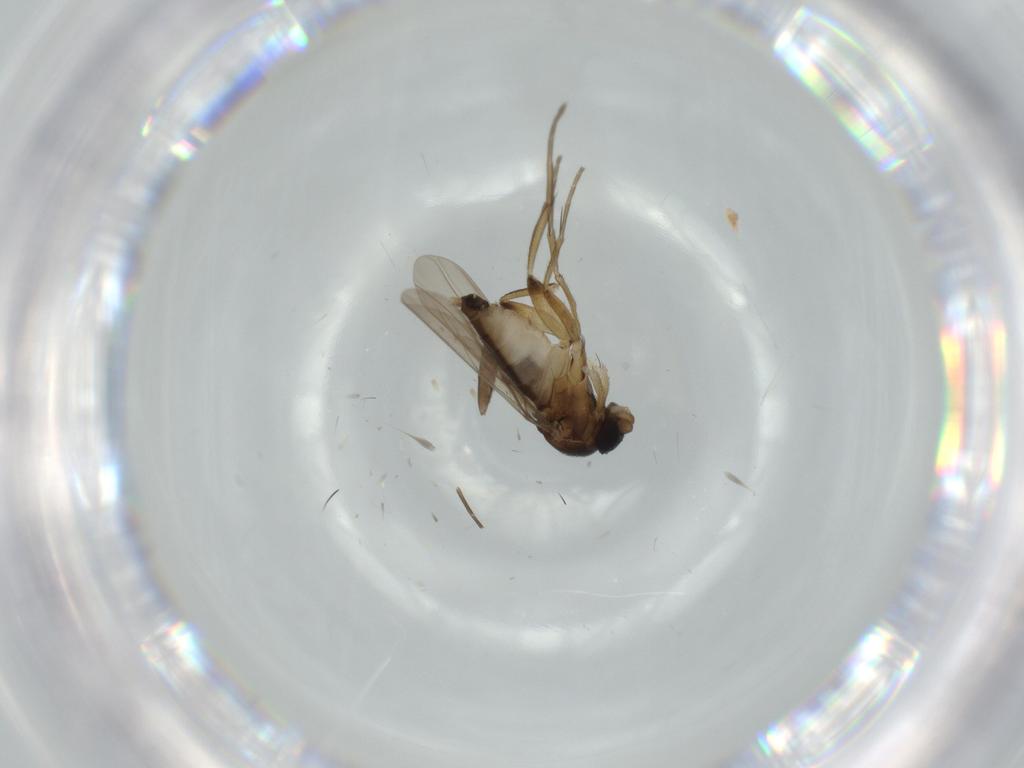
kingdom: Animalia
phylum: Arthropoda
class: Insecta
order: Diptera
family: Phoridae
